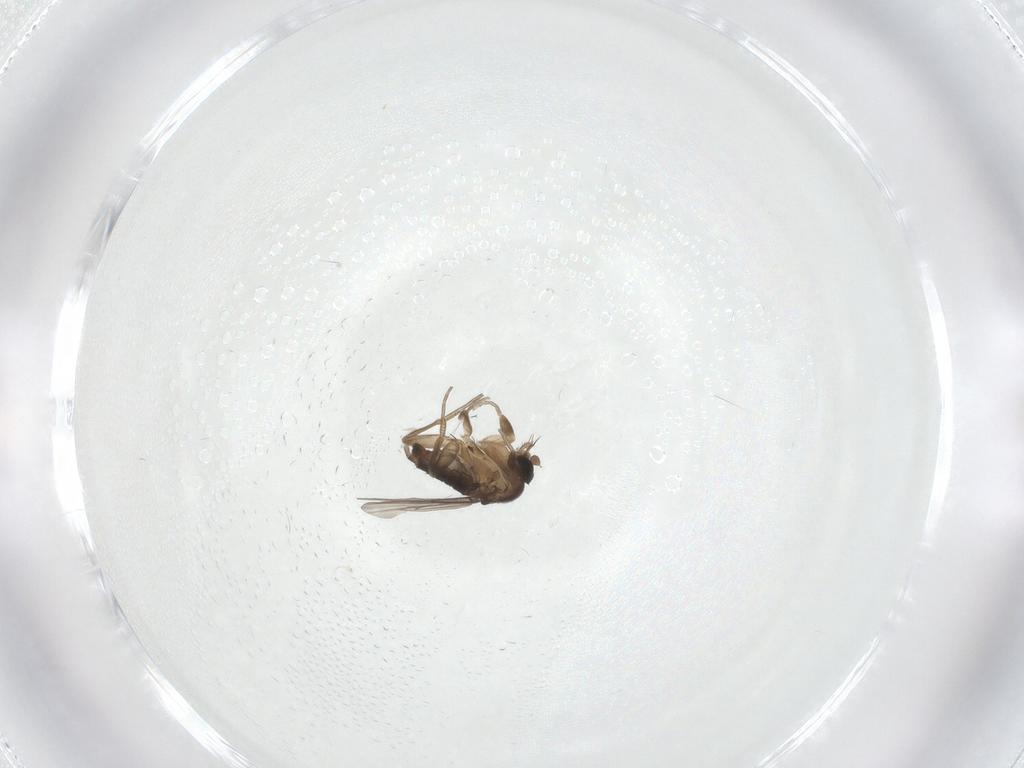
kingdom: Animalia
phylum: Arthropoda
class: Insecta
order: Diptera
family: Phoridae
